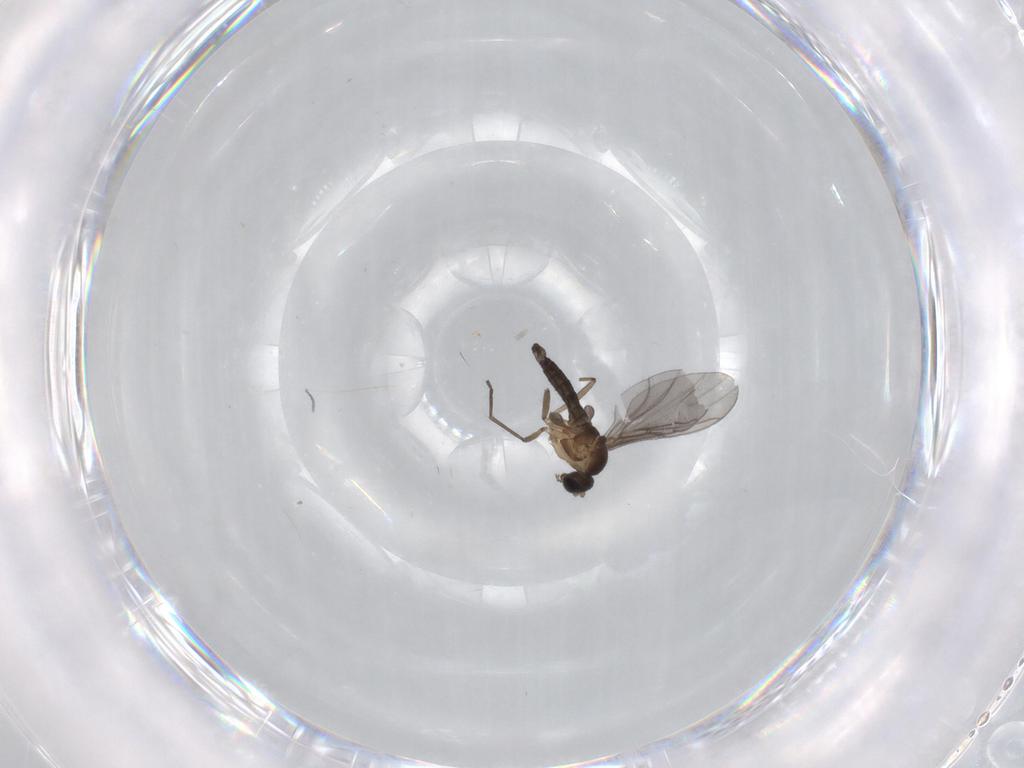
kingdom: Animalia
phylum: Arthropoda
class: Insecta
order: Diptera
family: Sciaridae
